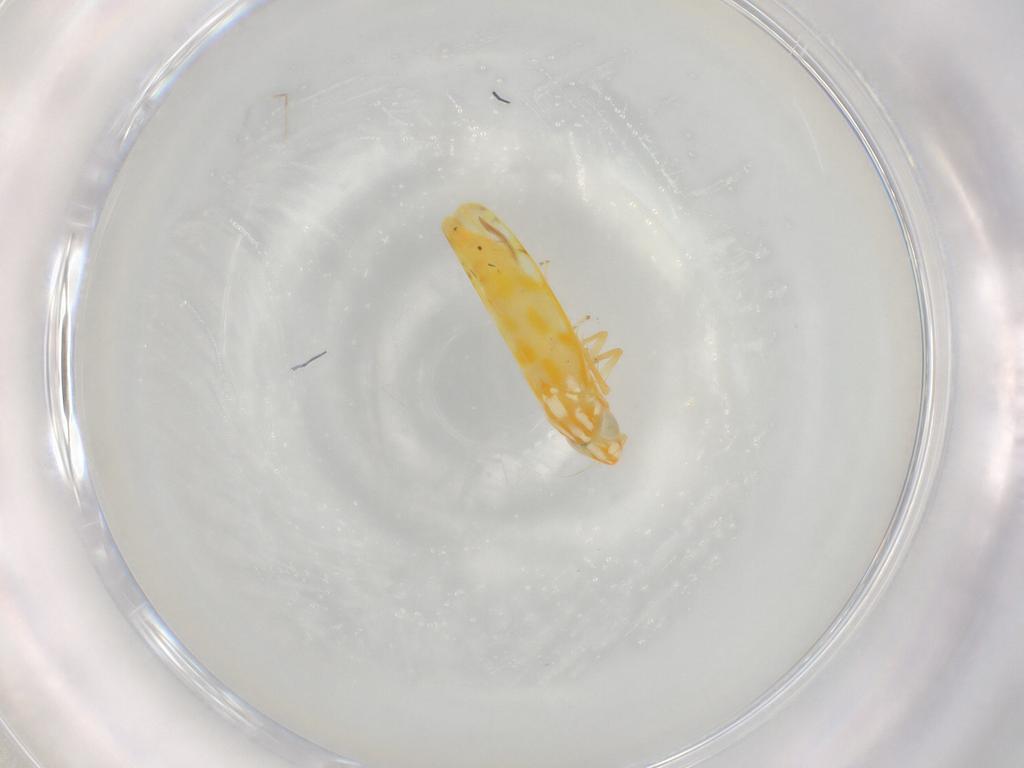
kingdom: Animalia
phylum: Arthropoda
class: Insecta
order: Hemiptera
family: Cicadellidae
